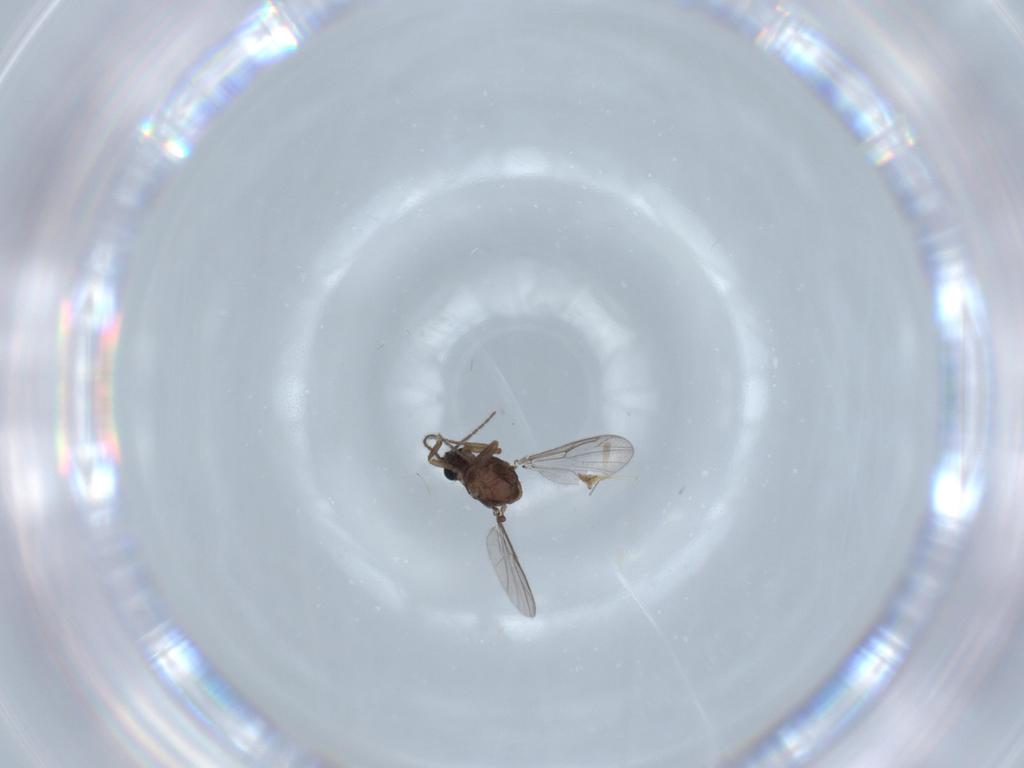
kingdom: Animalia
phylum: Arthropoda
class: Insecta
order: Diptera
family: Ceratopogonidae
